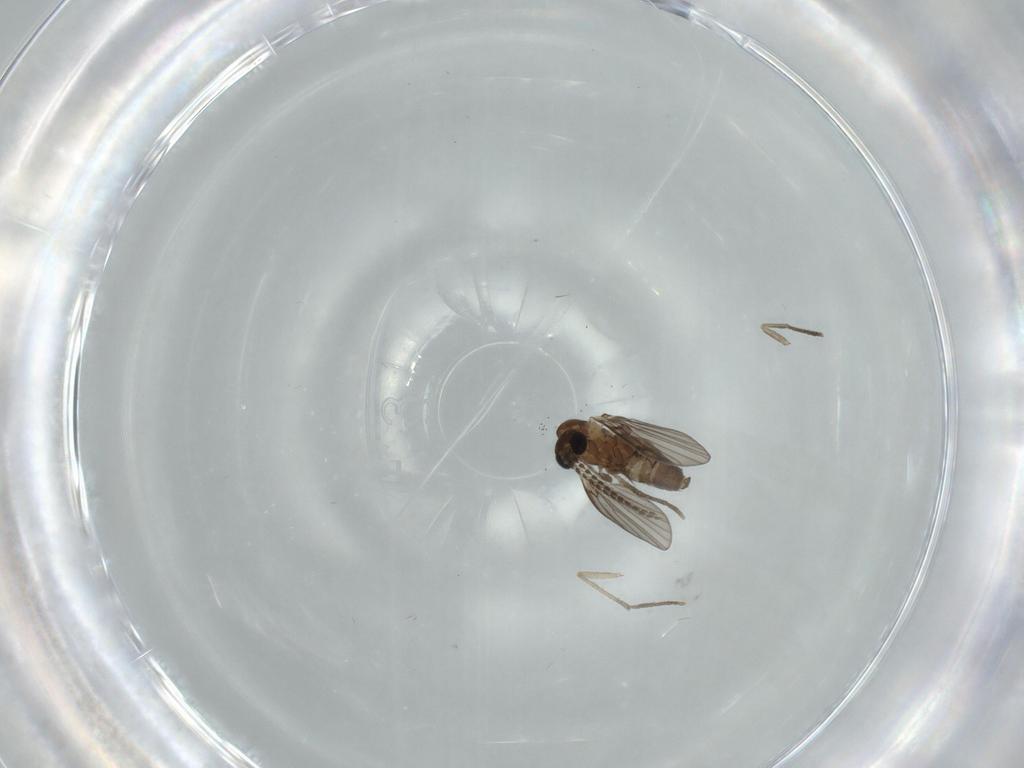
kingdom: Animalia
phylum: Arthropoda
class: Insecta
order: Diptera
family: Psychodidae
